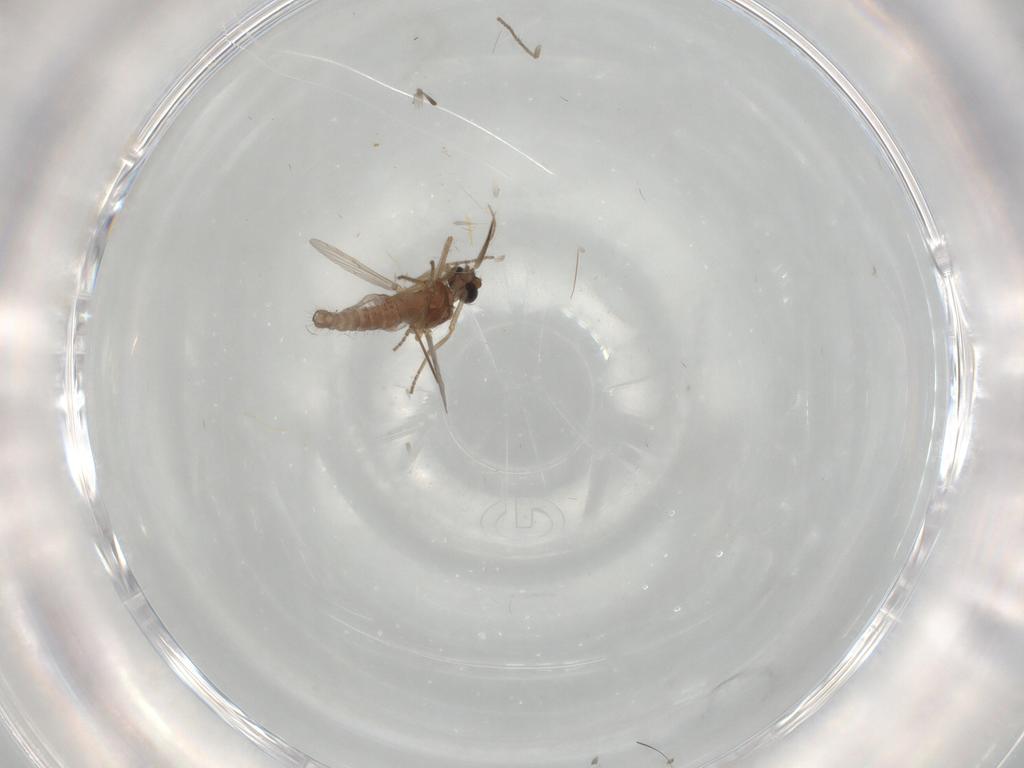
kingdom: Animalia
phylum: Arthropoda
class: Insecta
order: Diptera
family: Ceratopogonidae
